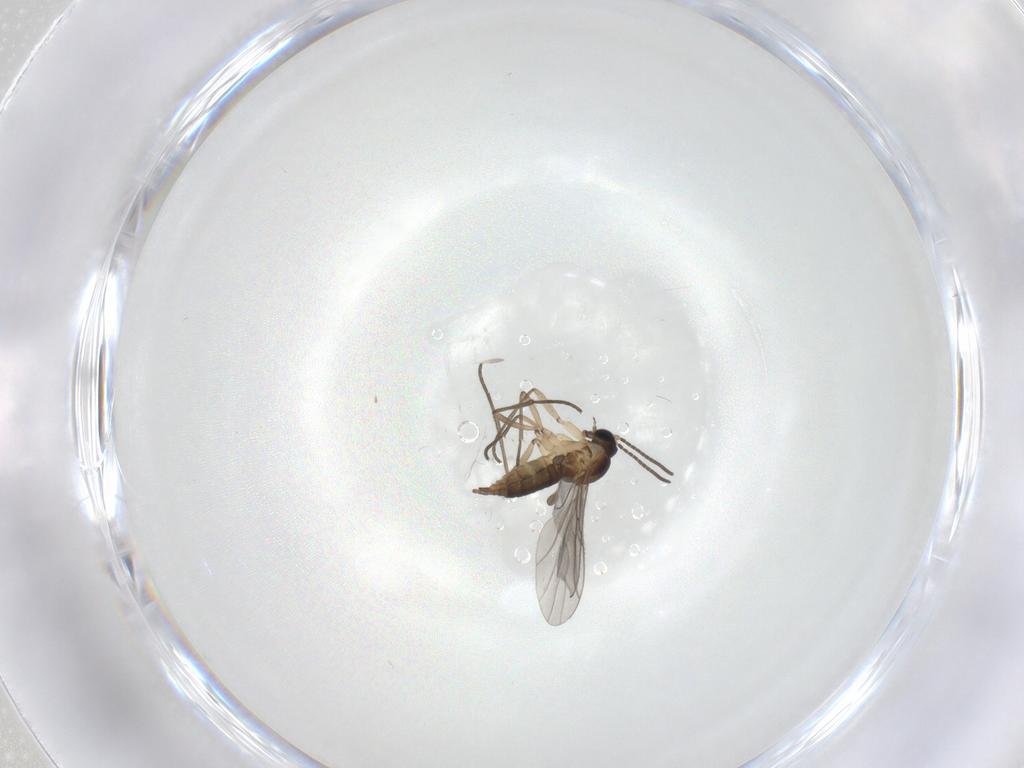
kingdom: Animalia
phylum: Arthropoda
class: Insecta
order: Diptera
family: Sciaridae
